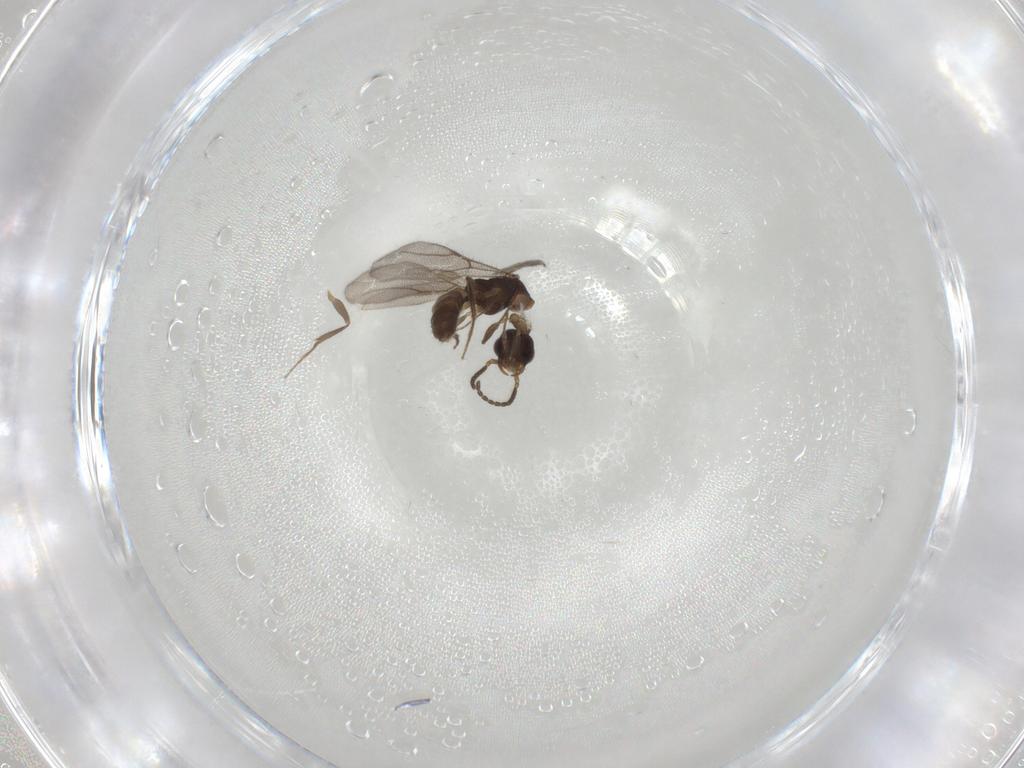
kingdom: Animalia
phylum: Arthropoda
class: Insecta
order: Hymenoptera
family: Bethylidae
